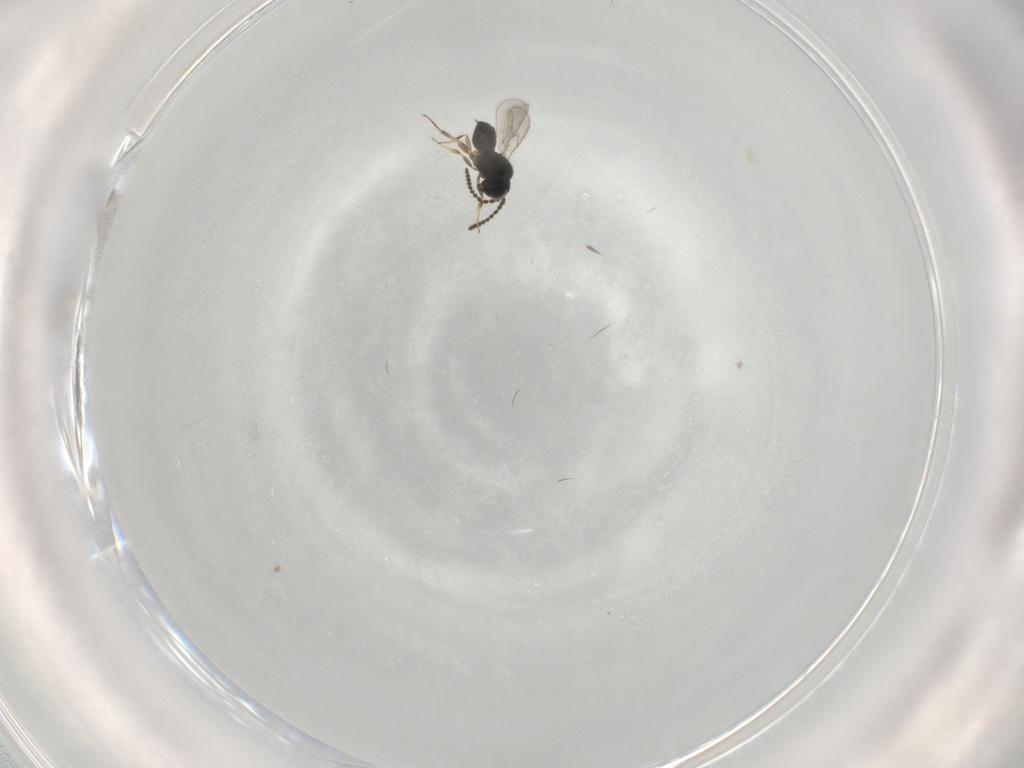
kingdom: Animalia
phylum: Arthropoda
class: Insecta
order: Hymenoptera
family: Scelionidae
